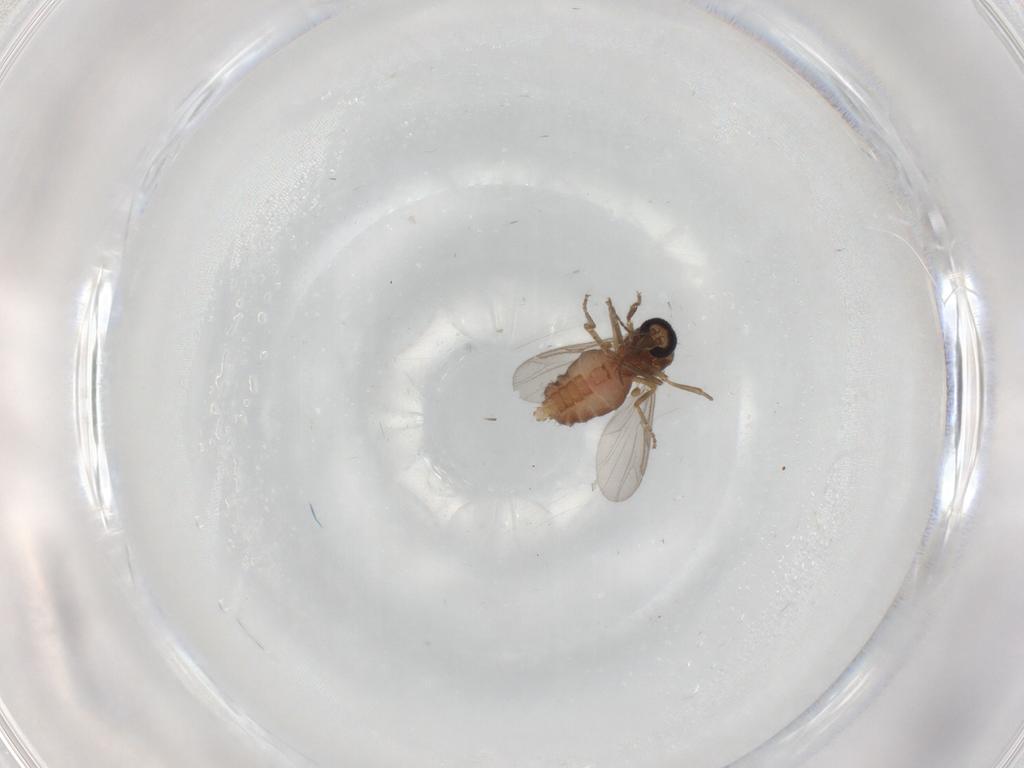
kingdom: Animalia
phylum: Arthropoda
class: Insecta
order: Diptera
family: Ceratopogonidae
